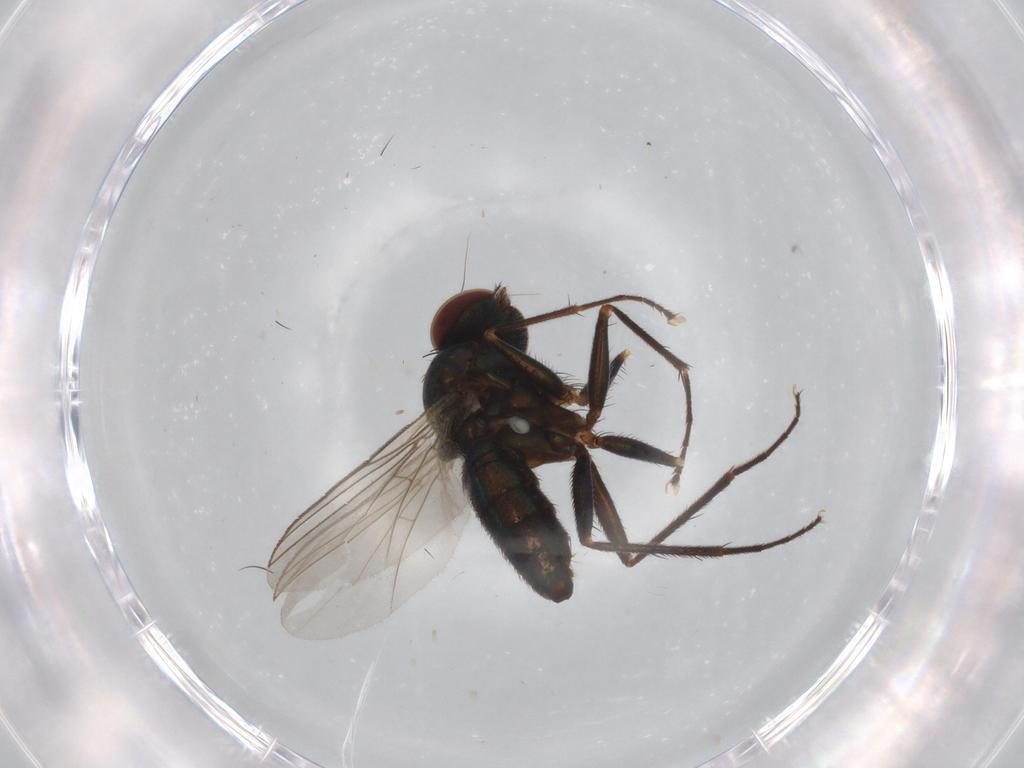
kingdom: Animalia
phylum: Arthropoda
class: Insecta
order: Diptera
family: Dolichopodidae
